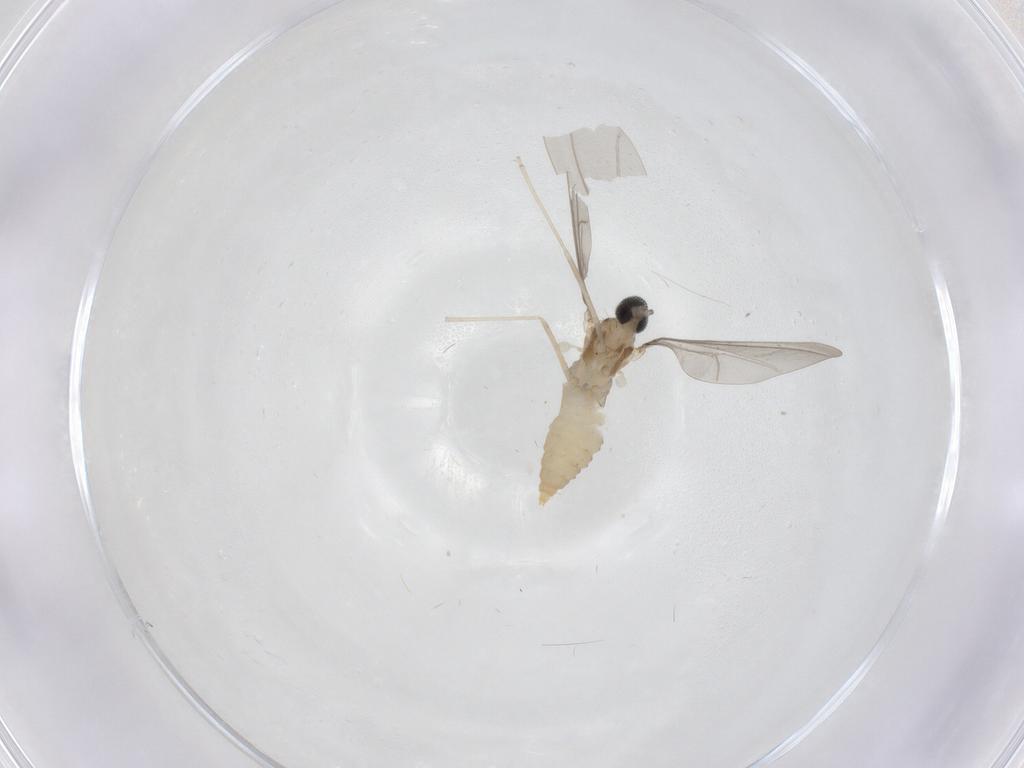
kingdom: Animalia
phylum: Arthropoda
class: Insecta
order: Diptera
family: Cecidomyiidae
